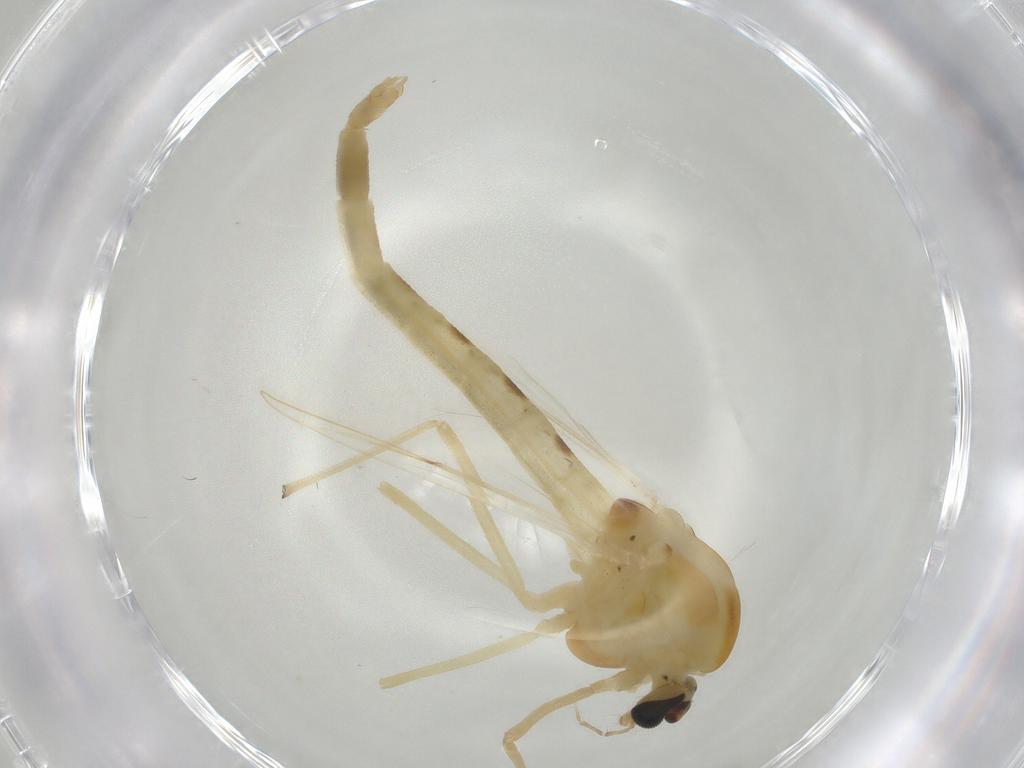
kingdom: Animalia
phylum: Arthropoda
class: Insecta
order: Diptera
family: Sciaridae
